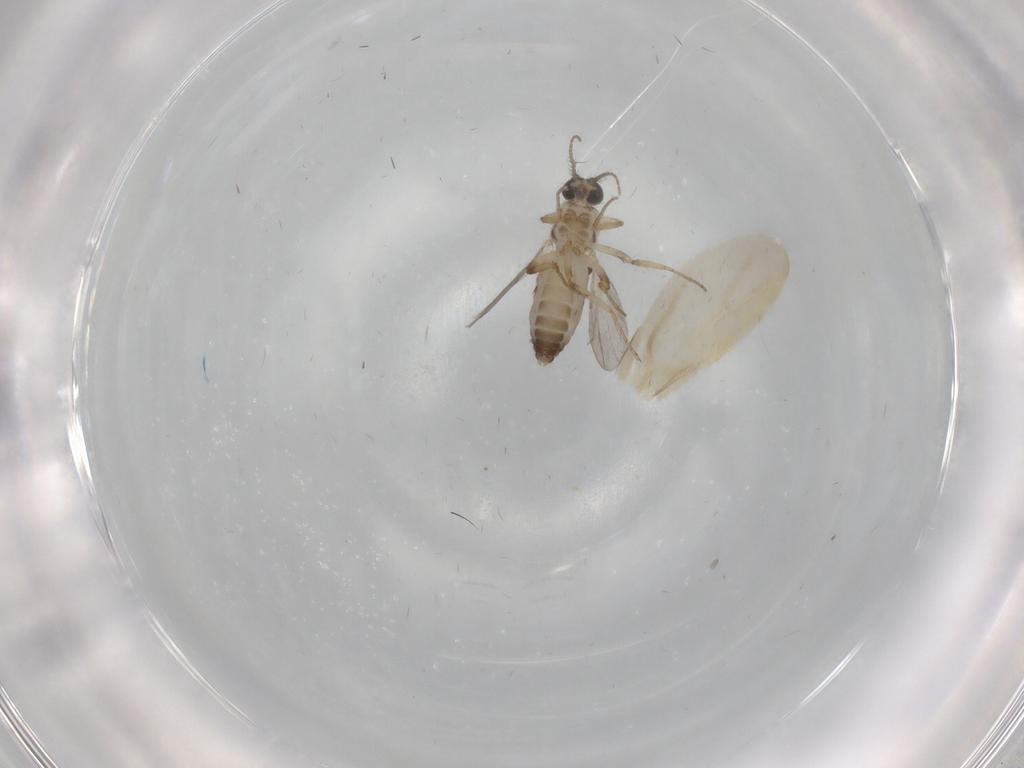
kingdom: Animalia
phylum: Arthropoda
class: Insecta
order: Diptera
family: Ceratopogonidae
